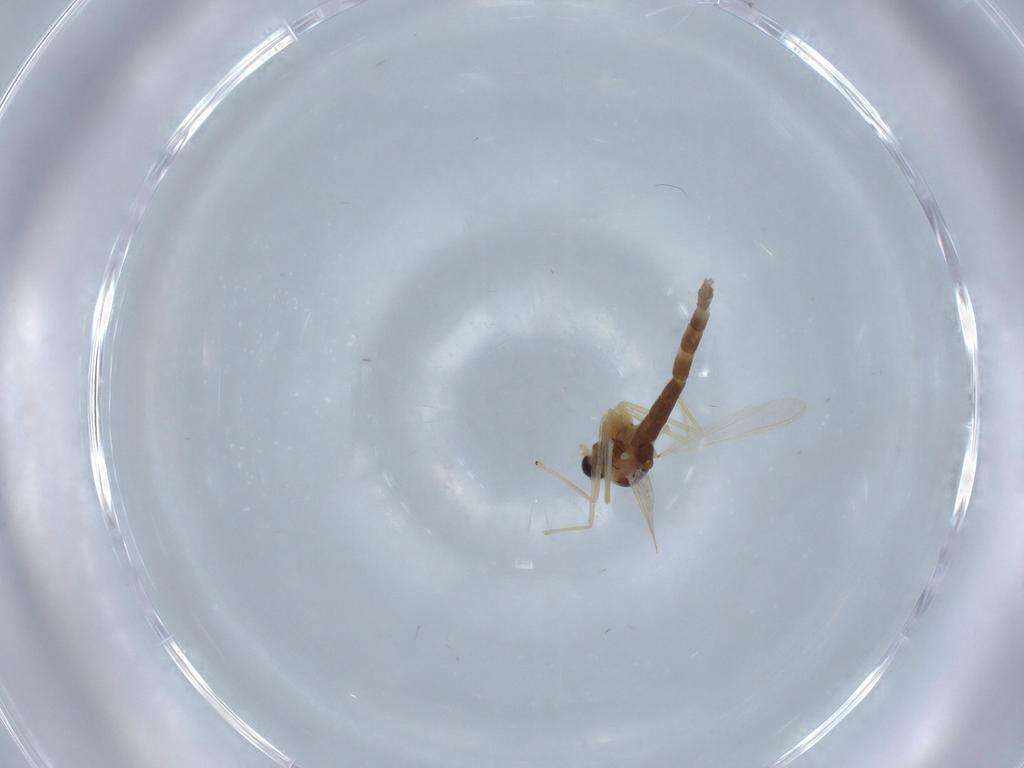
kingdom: Animalia
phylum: Arthropoda
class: Insecta
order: Diptera
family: Chironomidae
